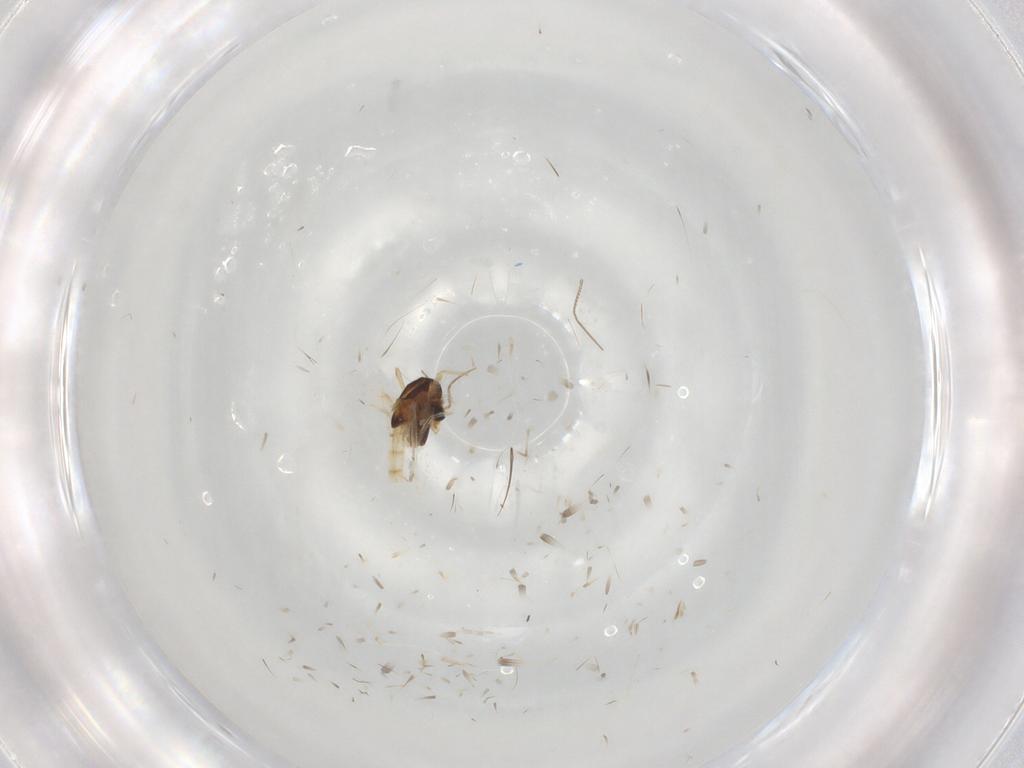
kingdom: Animalia
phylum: Arthropoda
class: Insecta
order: Diptera
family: Chironomidae
